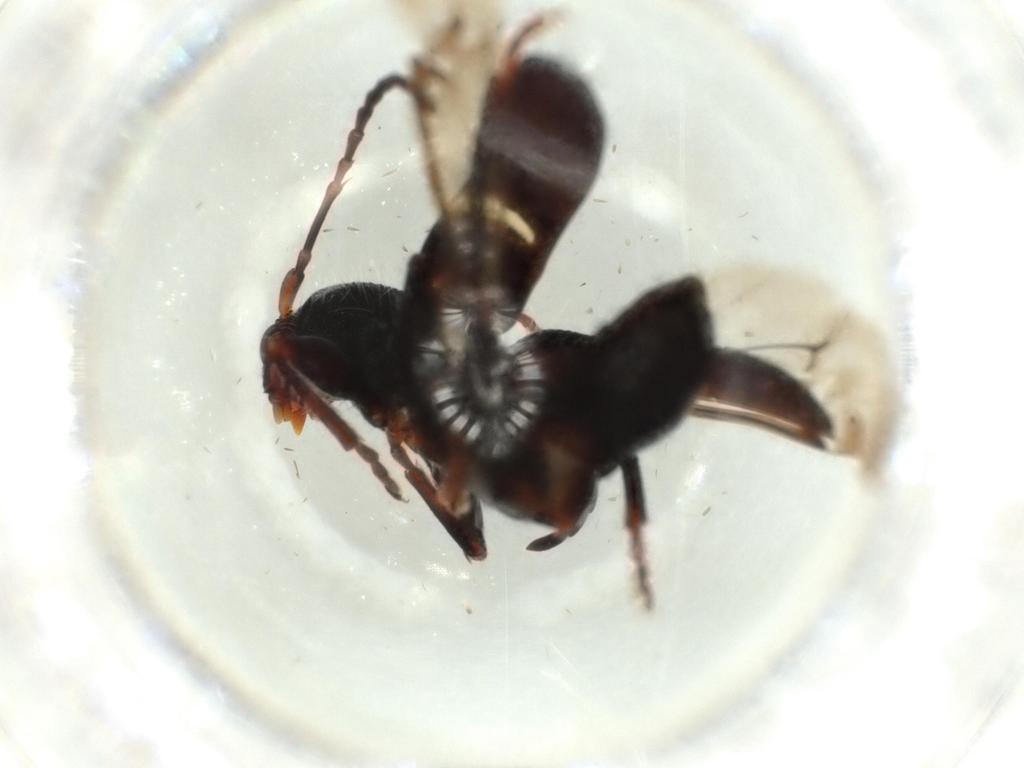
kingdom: Animalia
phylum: Arthropoda
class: Insecta
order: Coleoptera
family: Cerambycidae
